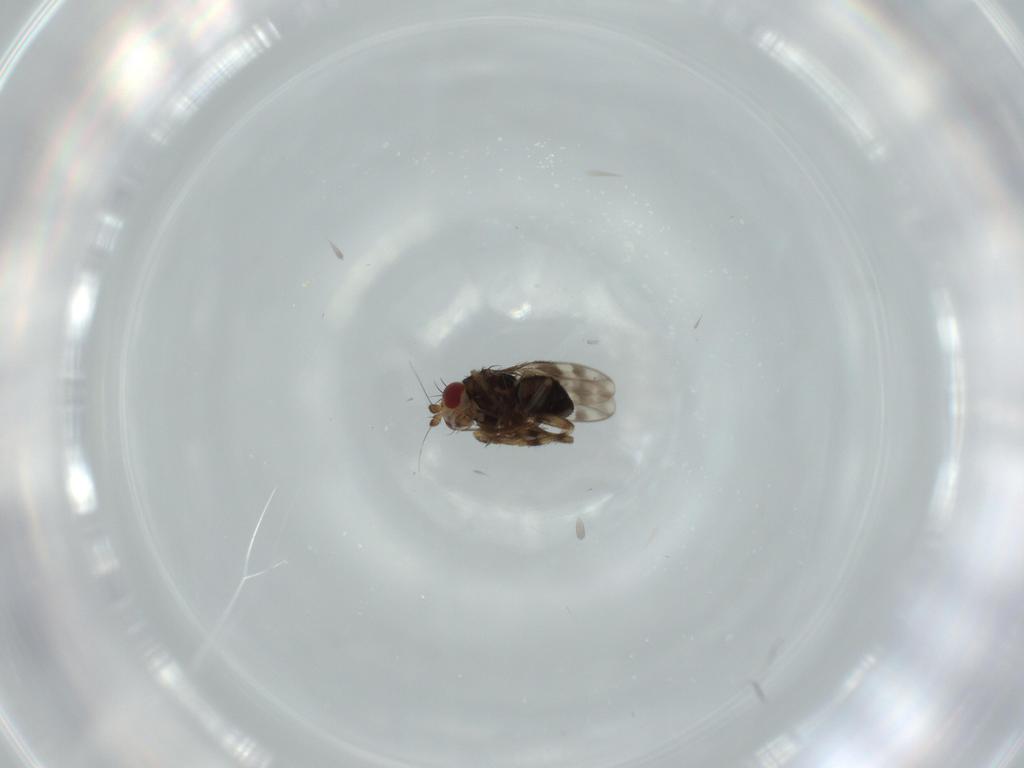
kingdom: Animalia
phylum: Arthropoda
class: Insecta
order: Diptera
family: Sphaeroceridae
